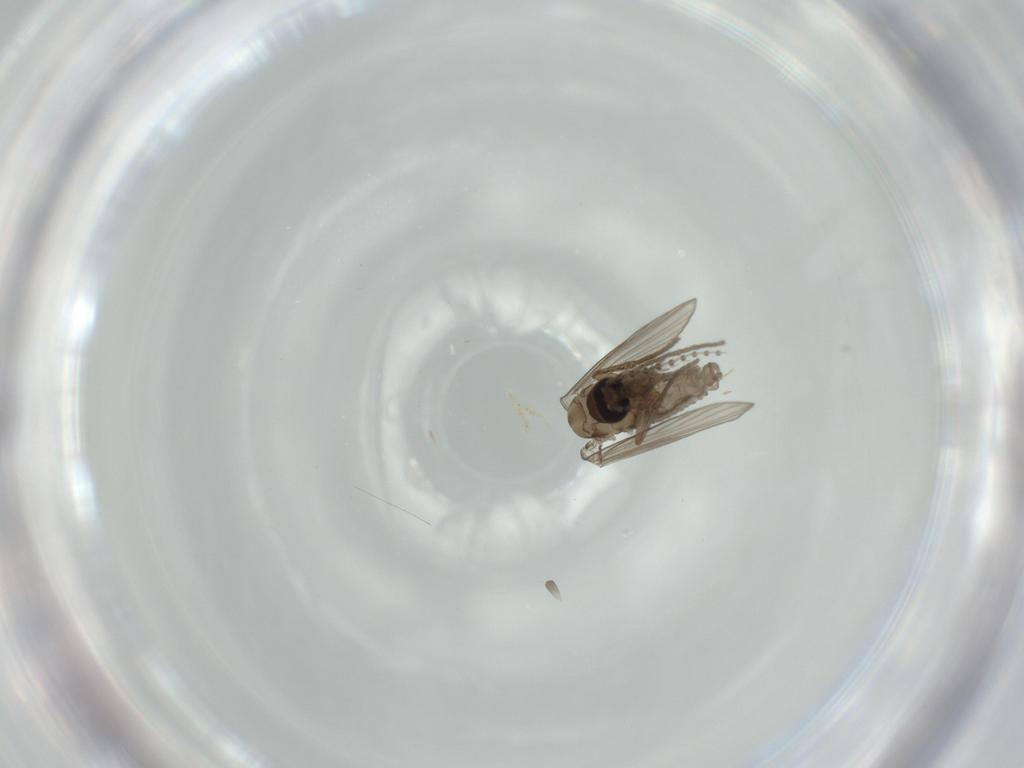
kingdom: Animalia
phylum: Arthropoda
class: Insecta
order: Diptera
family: Psychodidae
